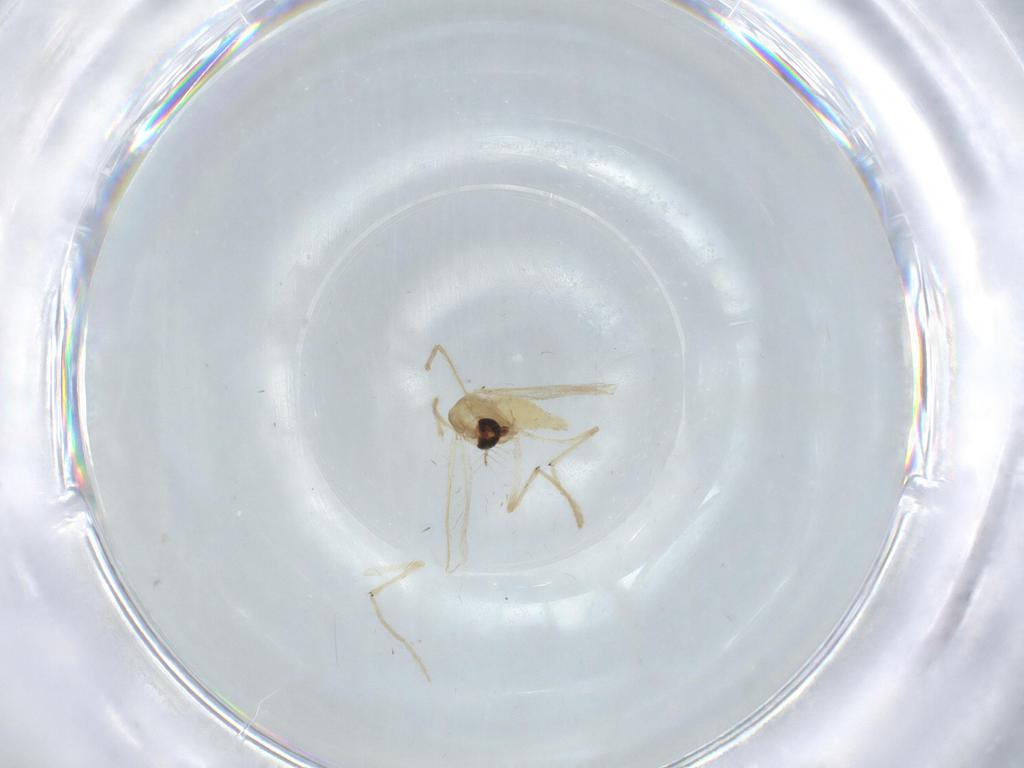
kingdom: Animalia
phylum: Arthropoda
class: Insecta
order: Diptera
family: Chironomidae
